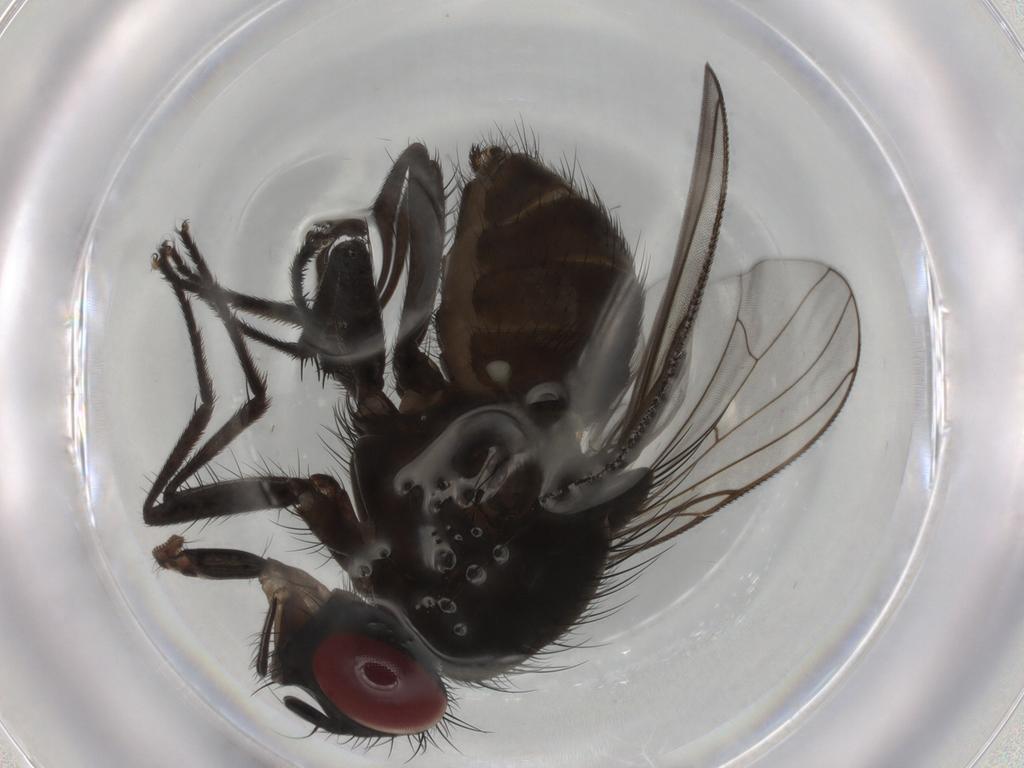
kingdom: Animalia
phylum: Arthropoda
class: Insecta
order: Diptera
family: Muscidae
